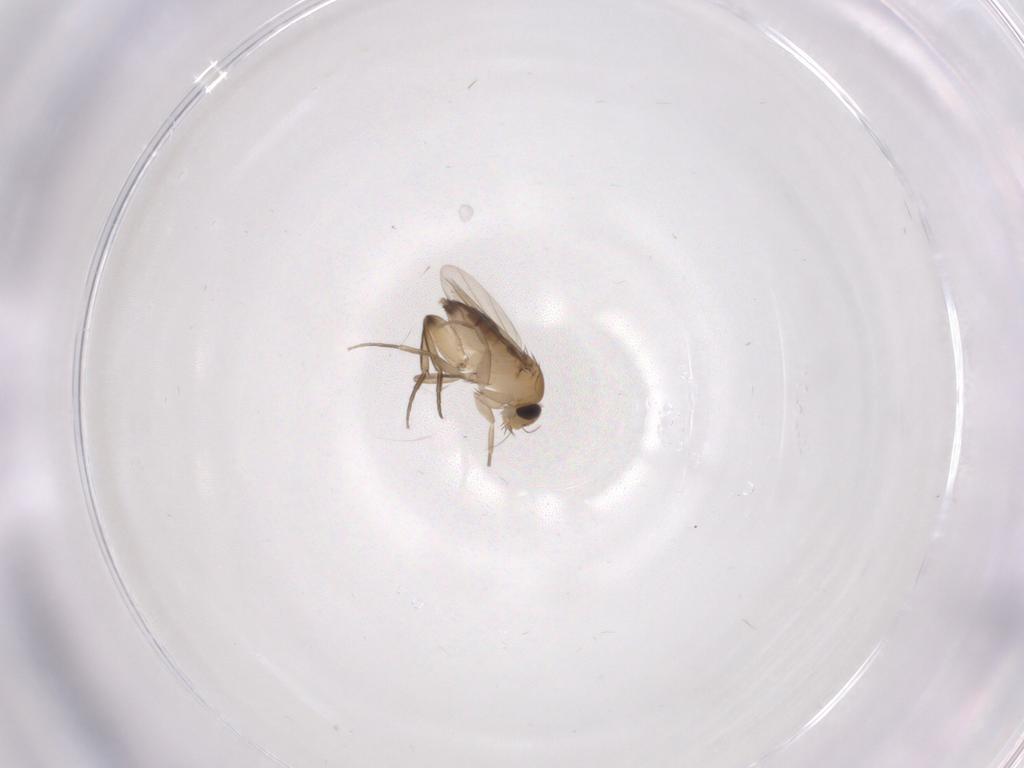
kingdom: Animalia
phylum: Arthropoda
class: Insecta
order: Diptera
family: Phoridae
